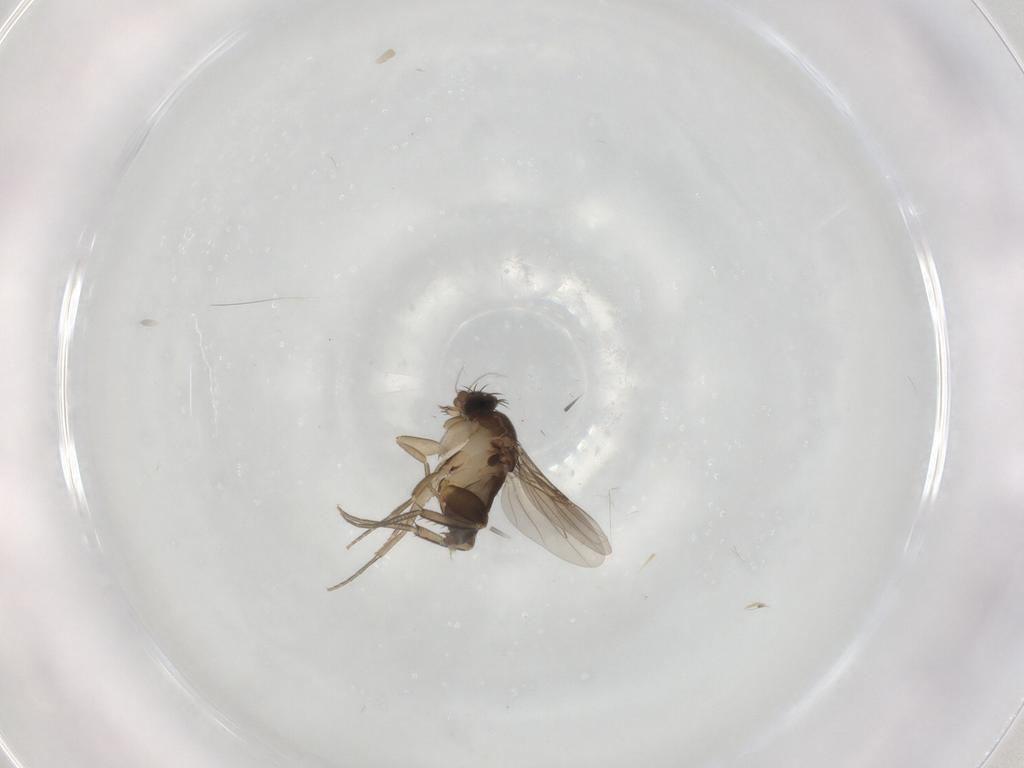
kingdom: Animalia
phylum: Arthropoda
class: Insecta
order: Diptera
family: Phoridae
